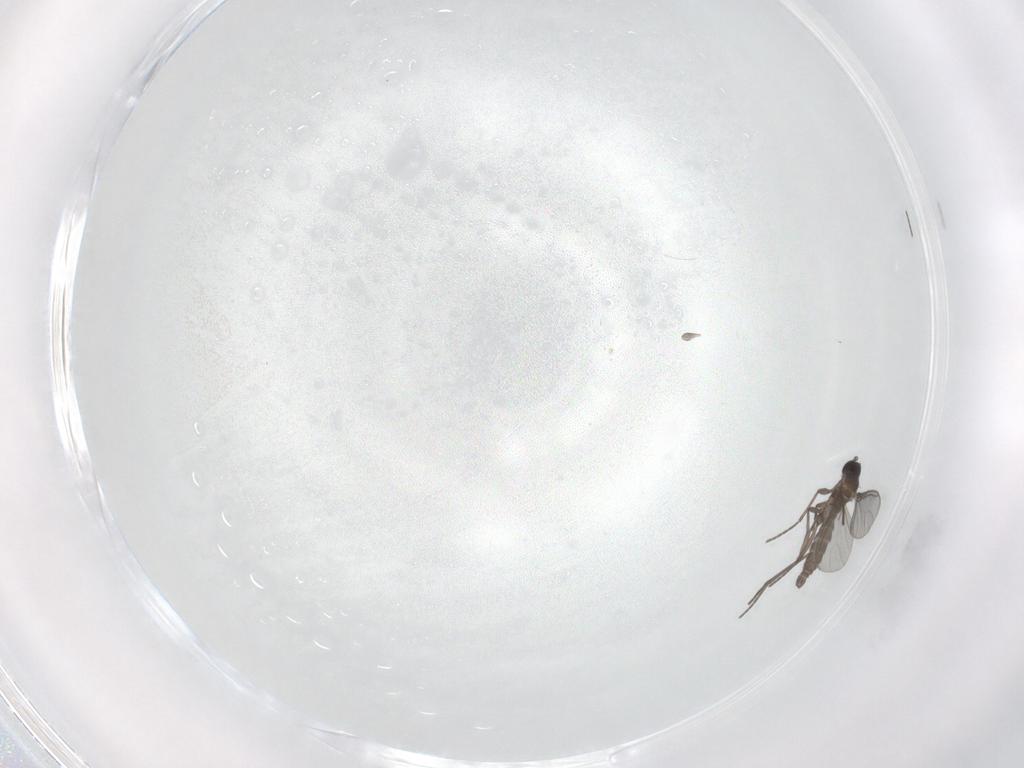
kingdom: Animalia
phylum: Arthropoda
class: Insecta
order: Diptera
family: Sciaridae
